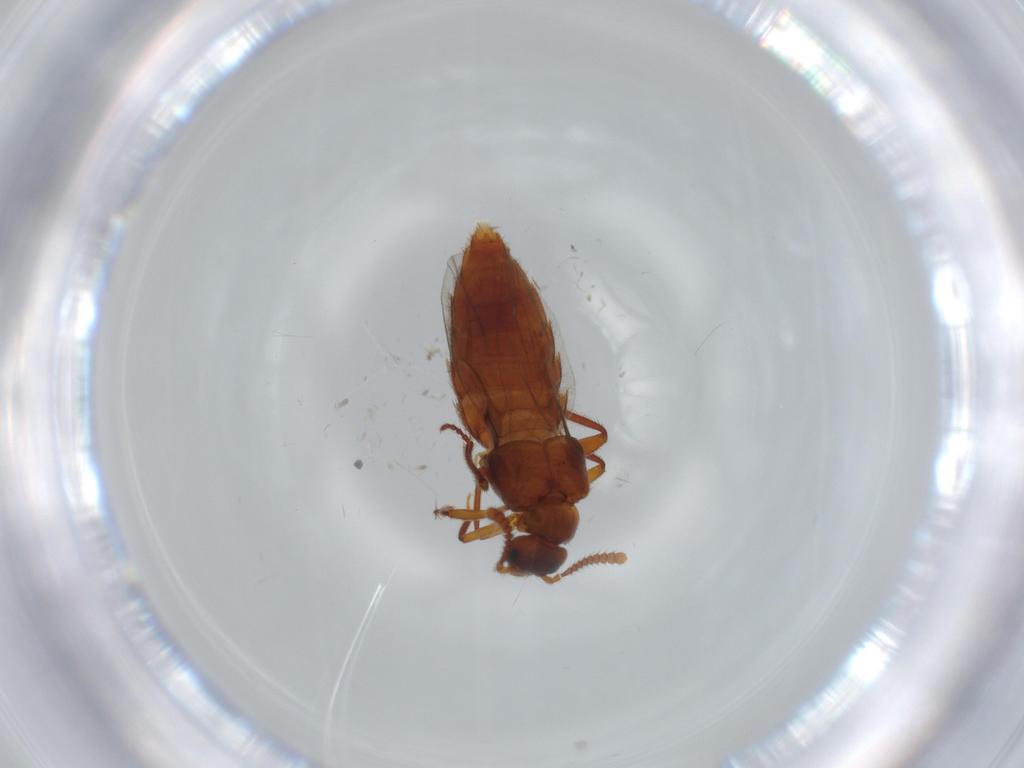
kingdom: Animalia
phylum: Arthropoda
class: Insecta
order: Coleoptera
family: Staphylinidae
